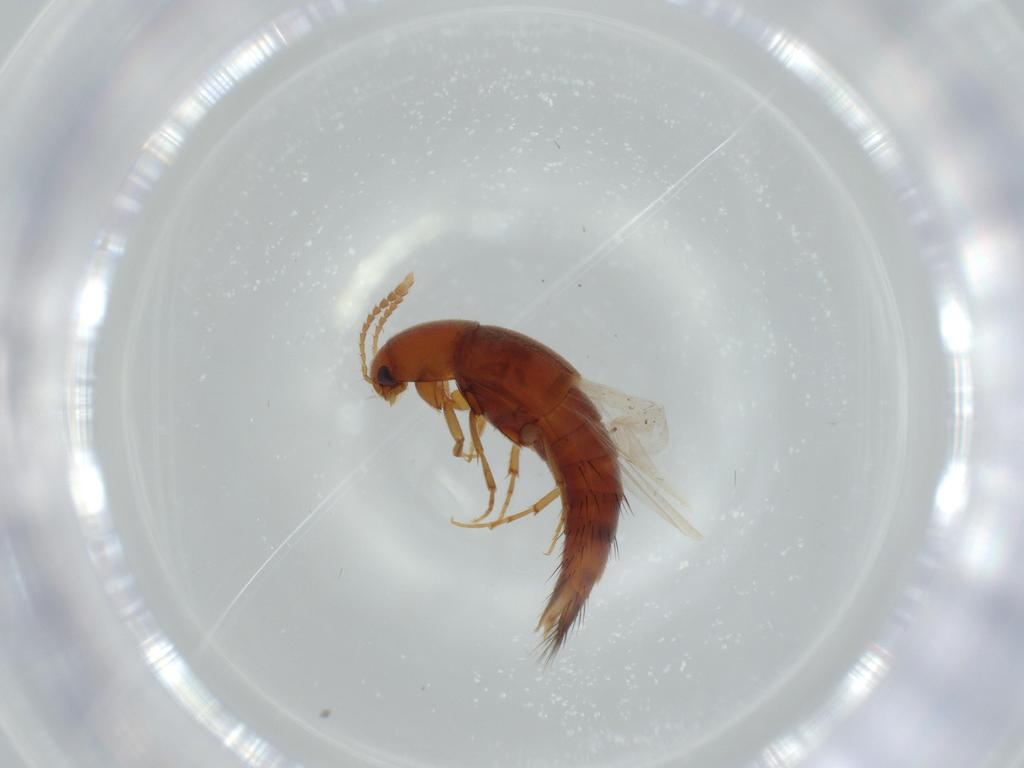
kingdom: Animalia
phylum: Arthropoda
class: Insecta
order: Coleoptera
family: Staphylinidae
